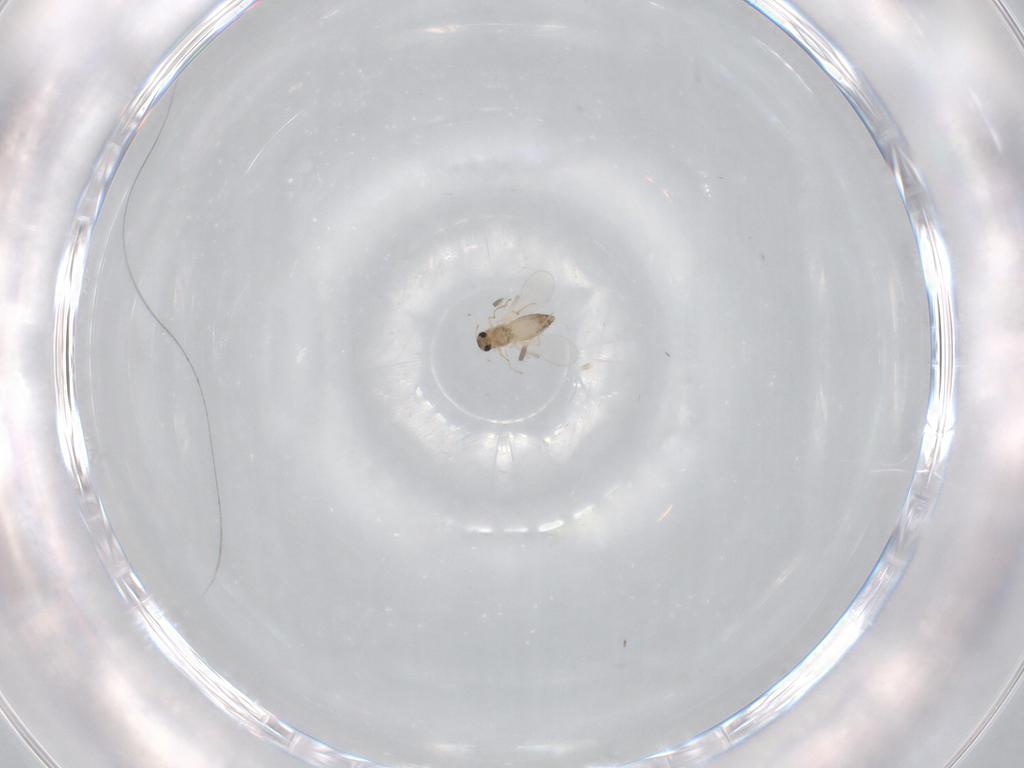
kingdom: Animalia
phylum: Arthropoda
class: Insecta
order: Diptera
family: Chironomidae
